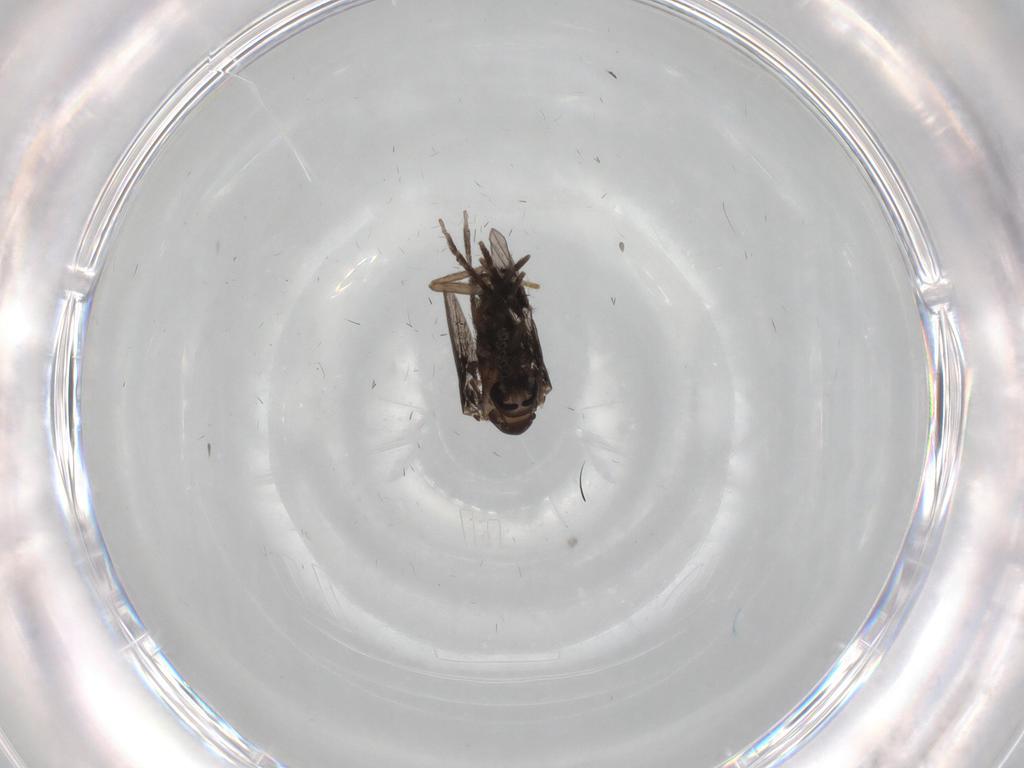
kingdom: Animalia
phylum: Arthropoda
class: Insecta
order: Diptera
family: Psychodidae
